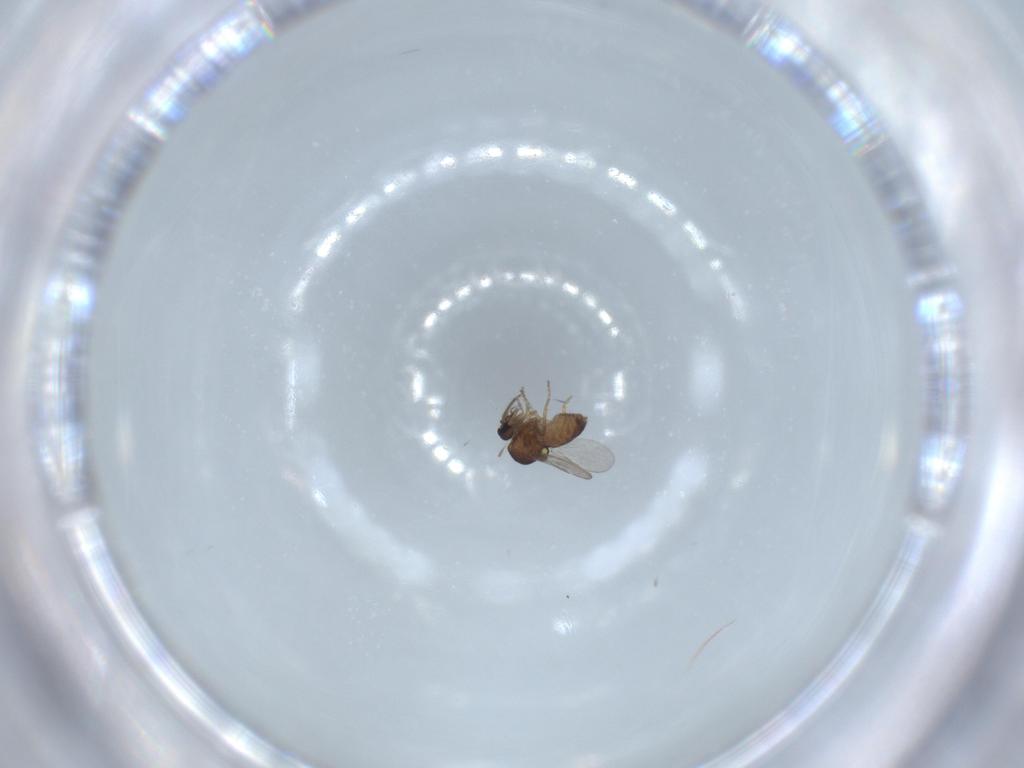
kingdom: Animalia
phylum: Arthropoda
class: Insecta
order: Diptera
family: Ceratopogonidae
